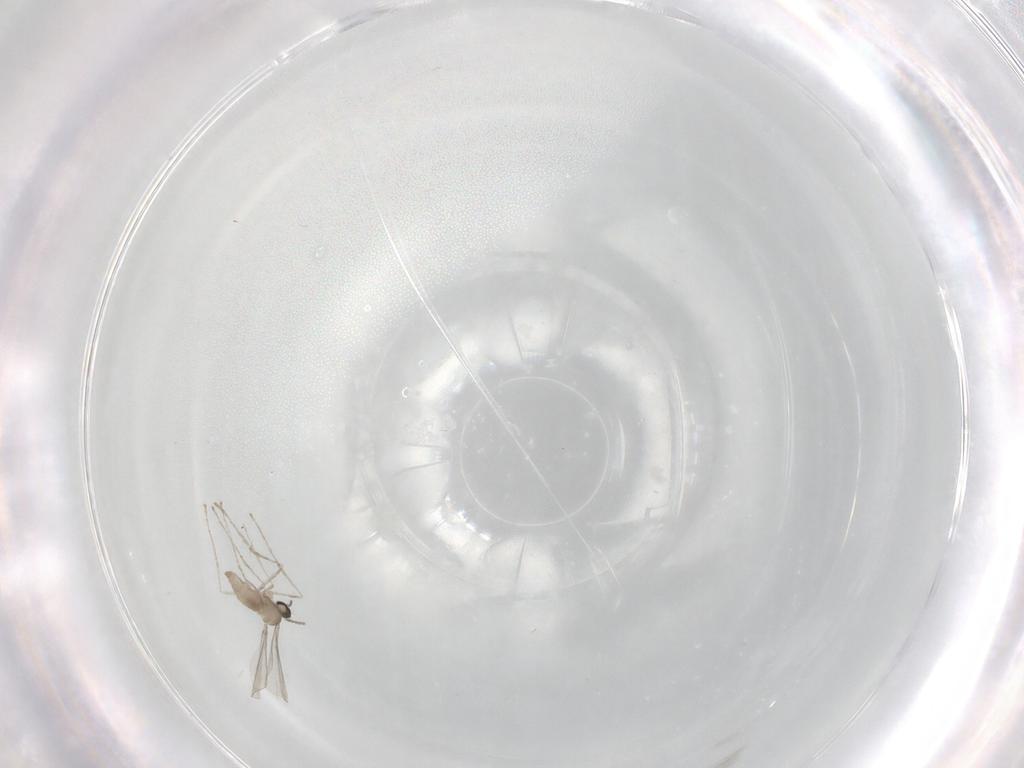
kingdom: Animalia
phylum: Arthropoda
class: Insecta
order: Diptera
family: Cecidomyiidae
